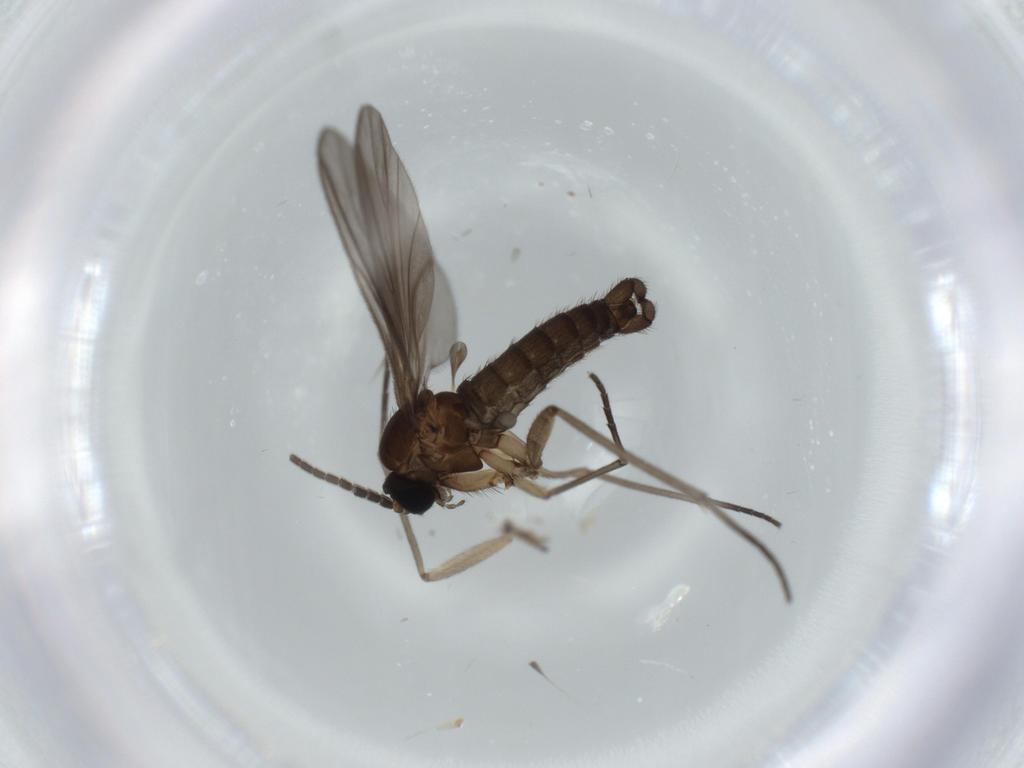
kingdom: Animalia
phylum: Arthropoda
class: Insecta
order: Diptera
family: Sciaridae
